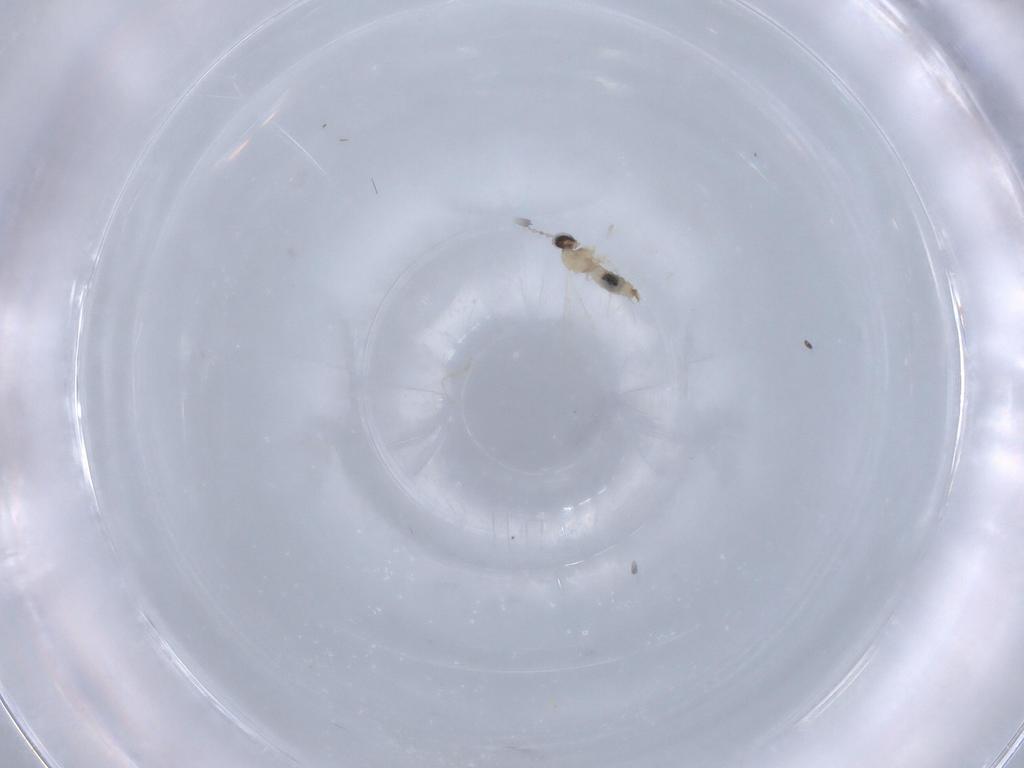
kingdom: Animalia
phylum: Arthropoda
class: Insecta
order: Diptera
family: Cecidomyiidae
